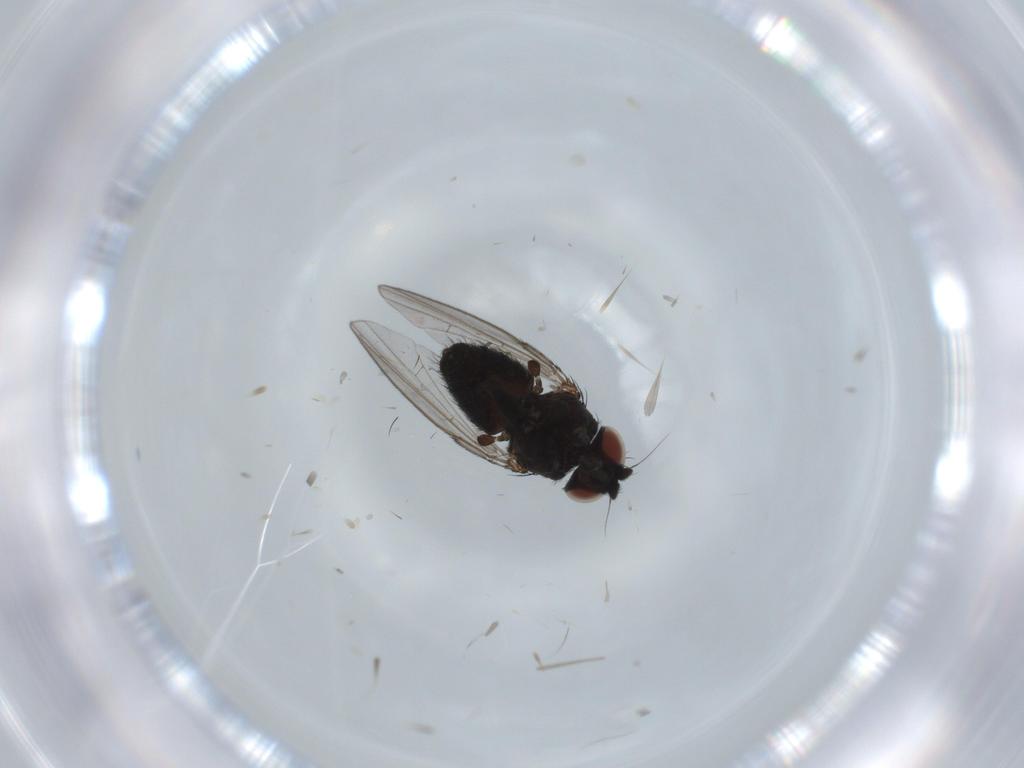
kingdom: Animalia
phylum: Arthropoda
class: Insecta
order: Diptera
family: Milichiidae
